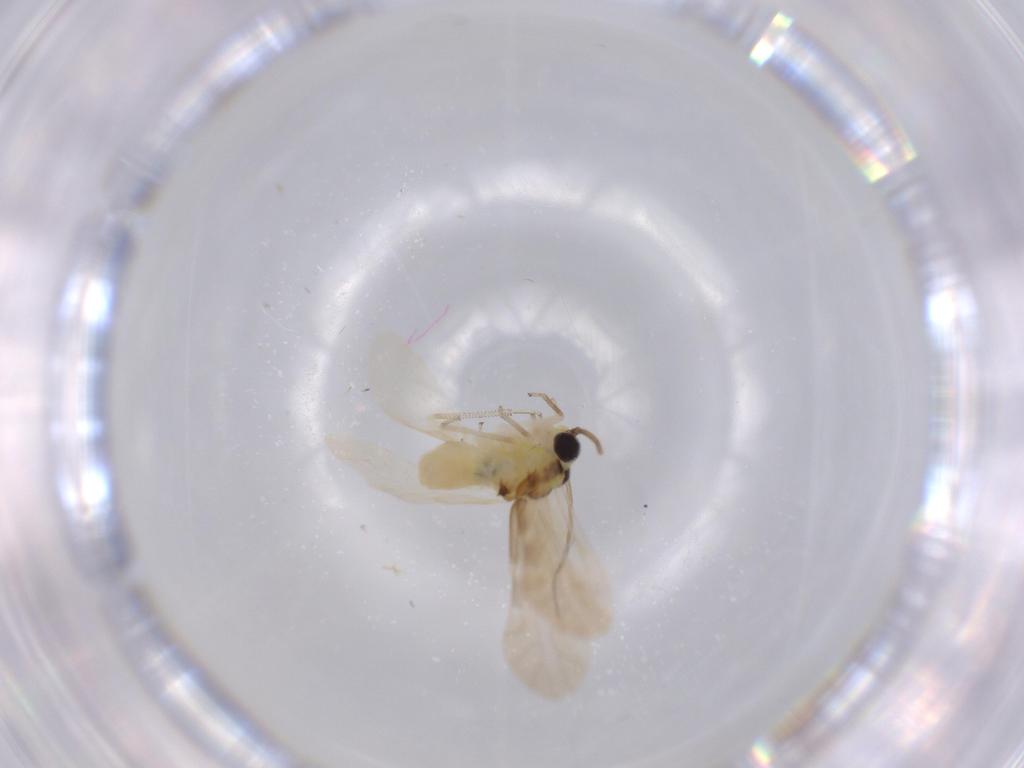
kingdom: Animalia
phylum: Arthropoda
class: Insecta
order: Psocodea
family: Caeciliusidae
